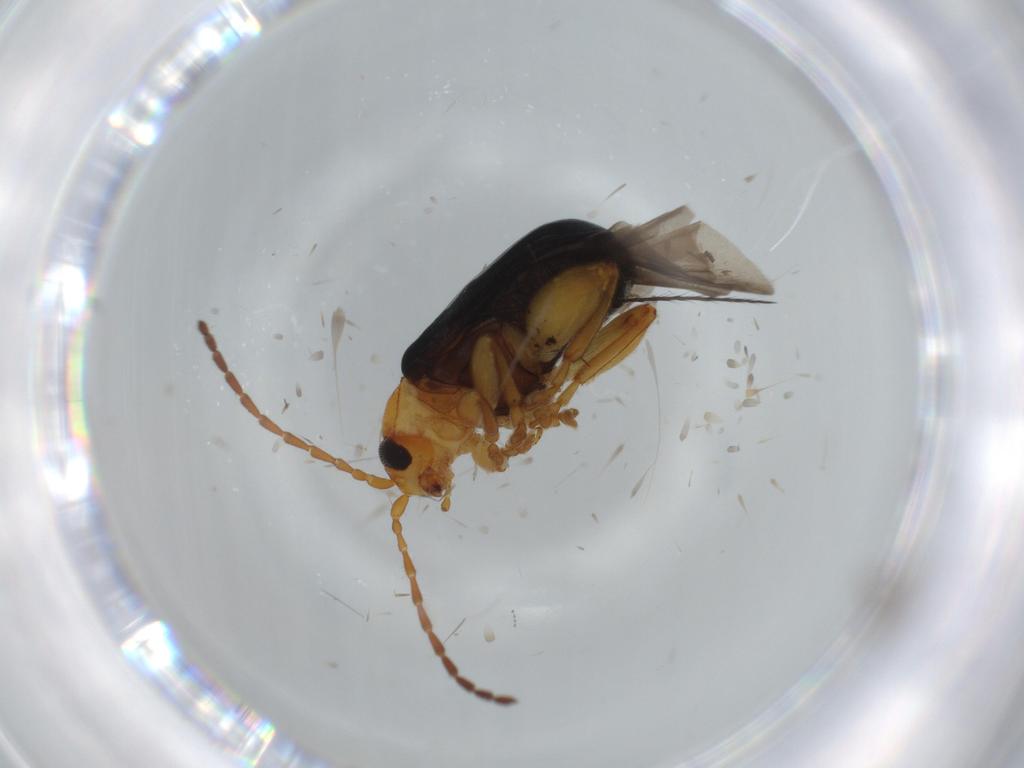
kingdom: Animalia
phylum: Arthropoda
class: Insecta
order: Coleoptera
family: Chrysomelidae
